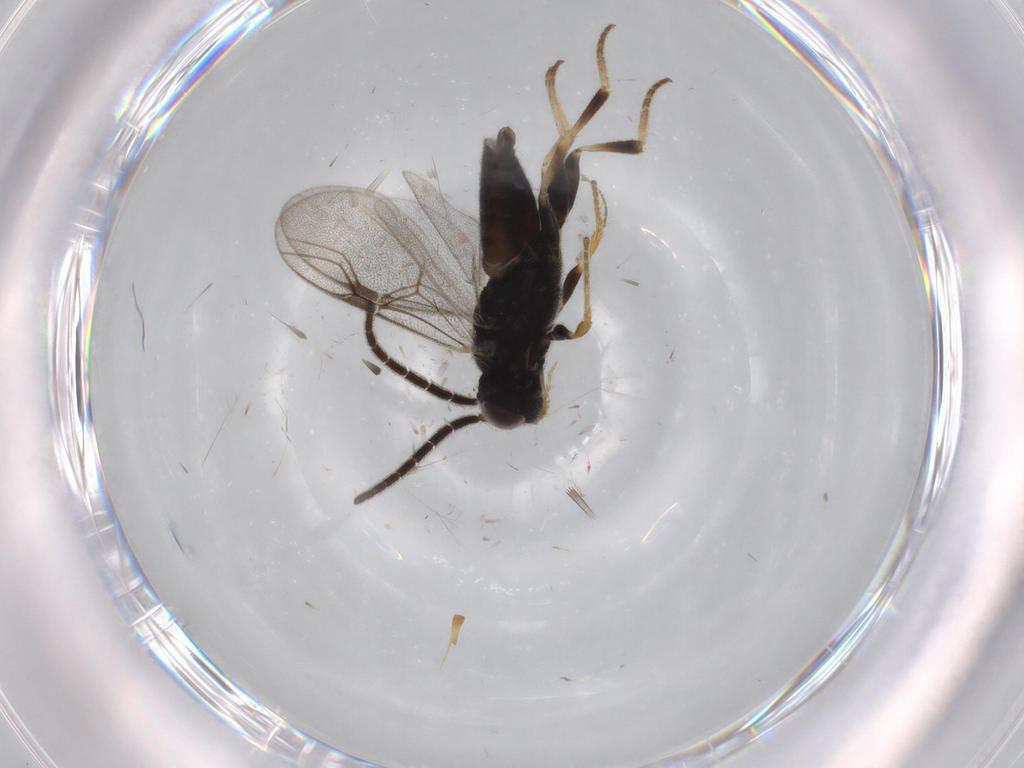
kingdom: Animalia
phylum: Arthropoda
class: Insecta
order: Hymenoptera
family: Dryinidae
